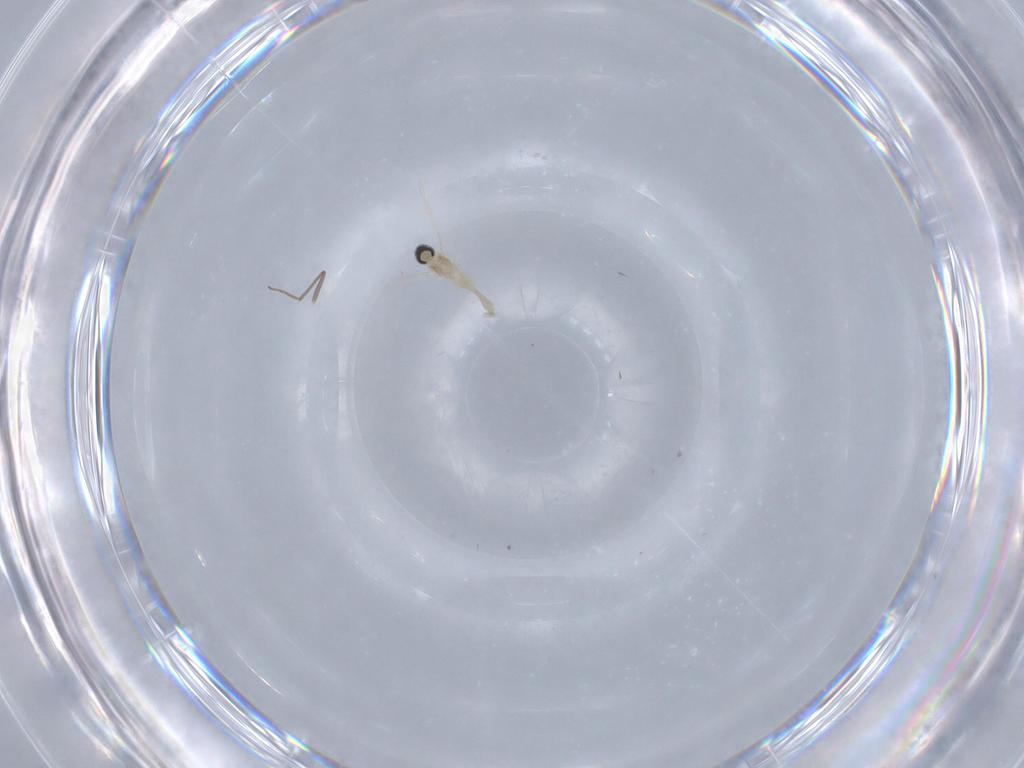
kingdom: Animalia
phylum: Arthropoda
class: Insecta
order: Diptera
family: Cecidomyiidae
